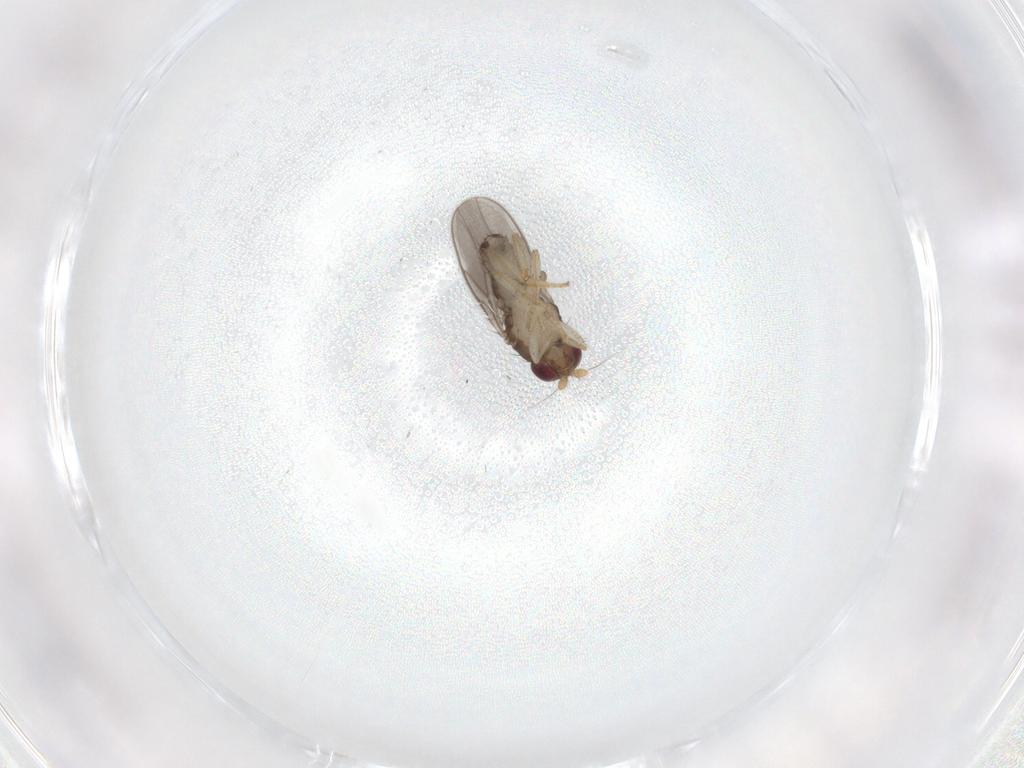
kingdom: Animalia
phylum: Arthropoda
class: Insecta
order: Diptera
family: Sphaeroceridae
